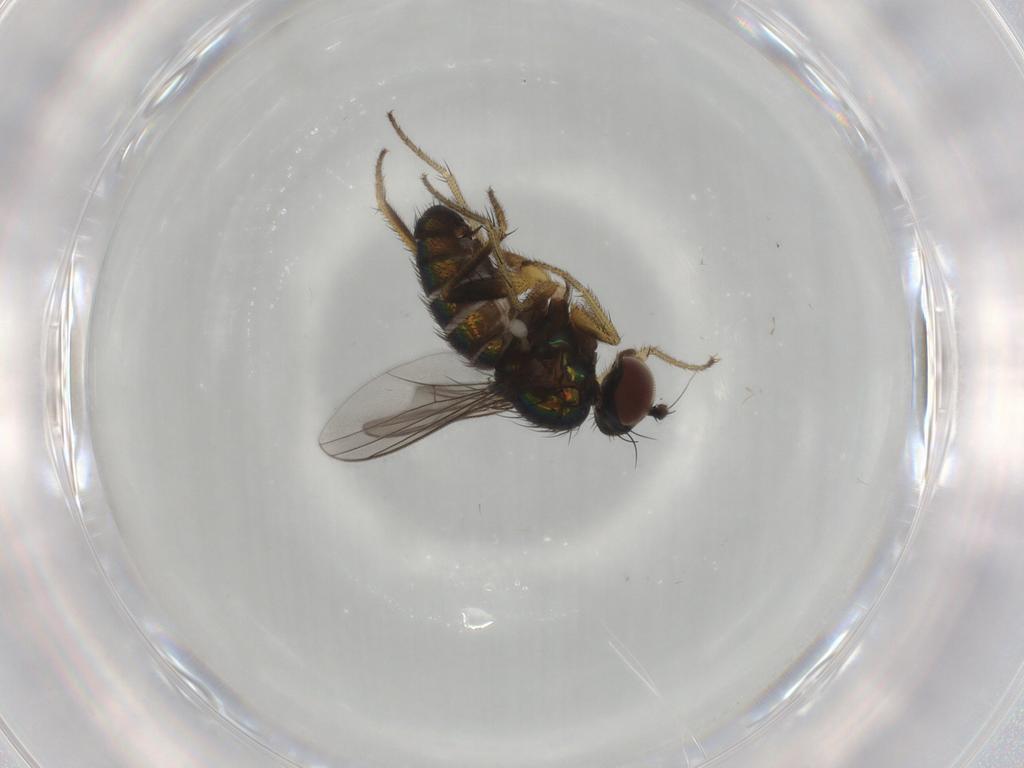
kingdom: Animalia
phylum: Arthropoda
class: Insecta
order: Diptera
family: Dolichopodidae
